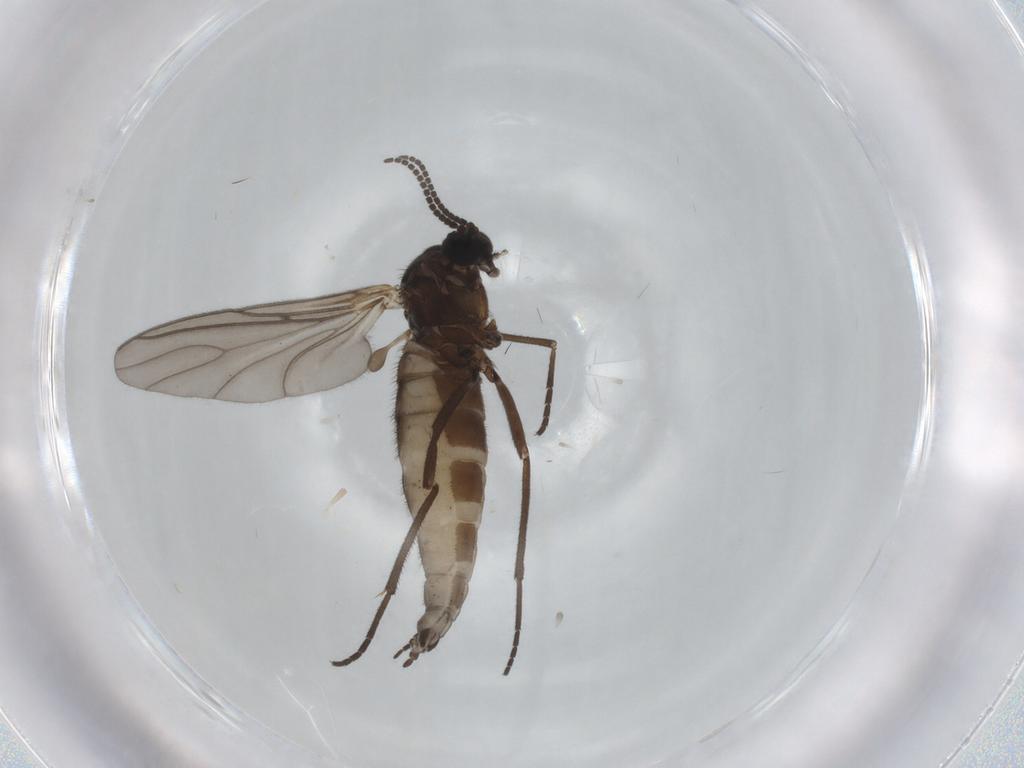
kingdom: Animalia
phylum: Arthropoda
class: Insecta
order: Diptera
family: Sciaridae
